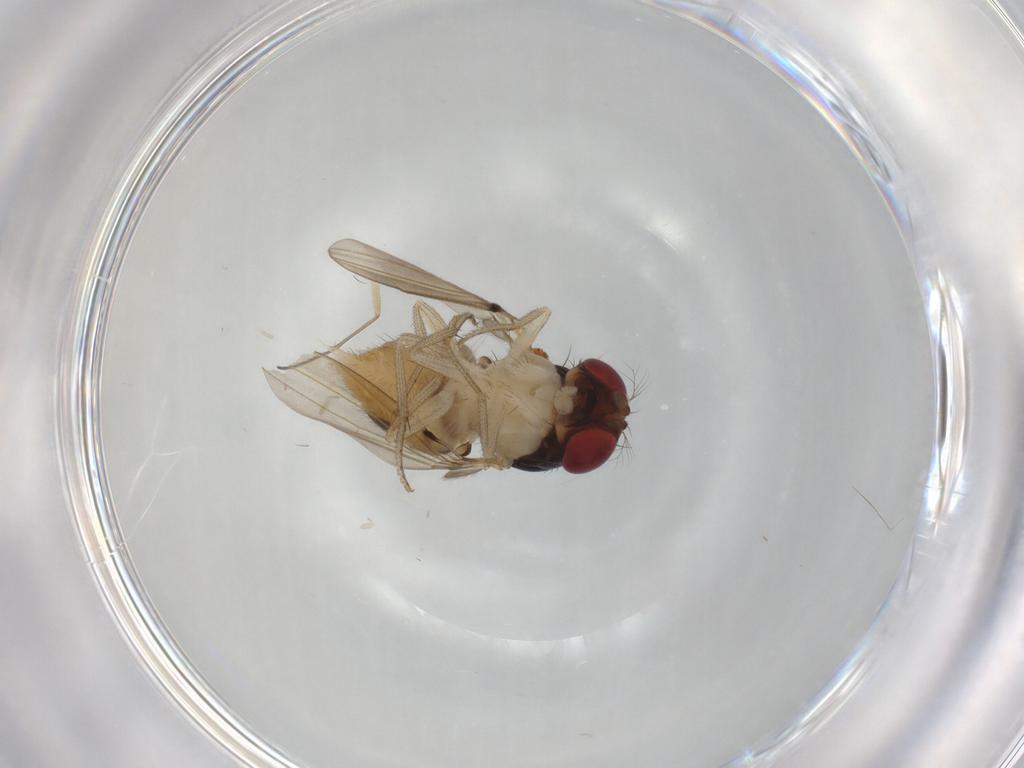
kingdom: Animalia
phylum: Arthropoda
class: Insecta
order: Diptera
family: Drosophilidae
